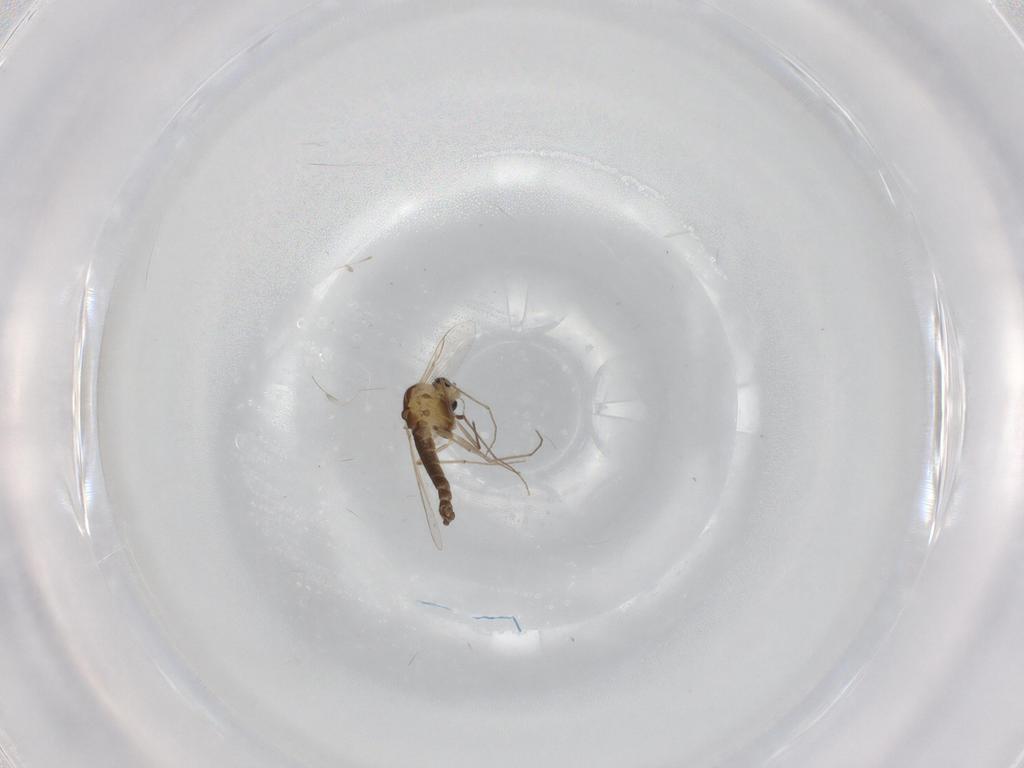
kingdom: Animalia
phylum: Arthropoda
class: Insecta
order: Diptera
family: Chironomidae
